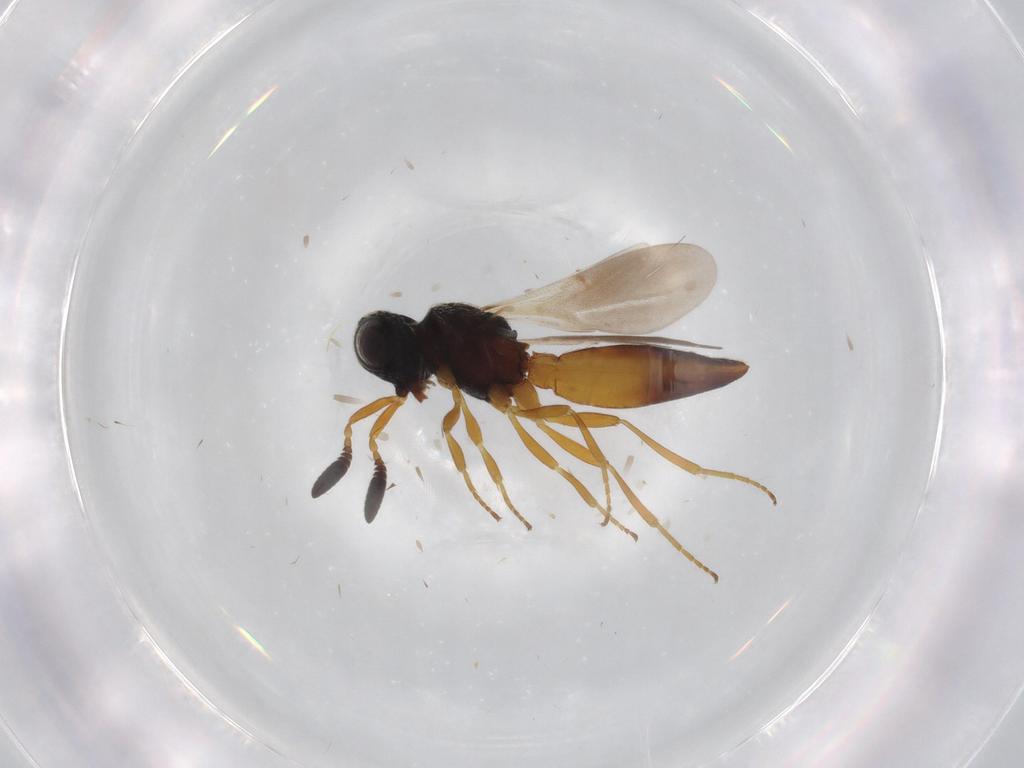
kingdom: Animalia
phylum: Arthropoda
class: Insecta
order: Hymenoptera
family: Scelionidae
